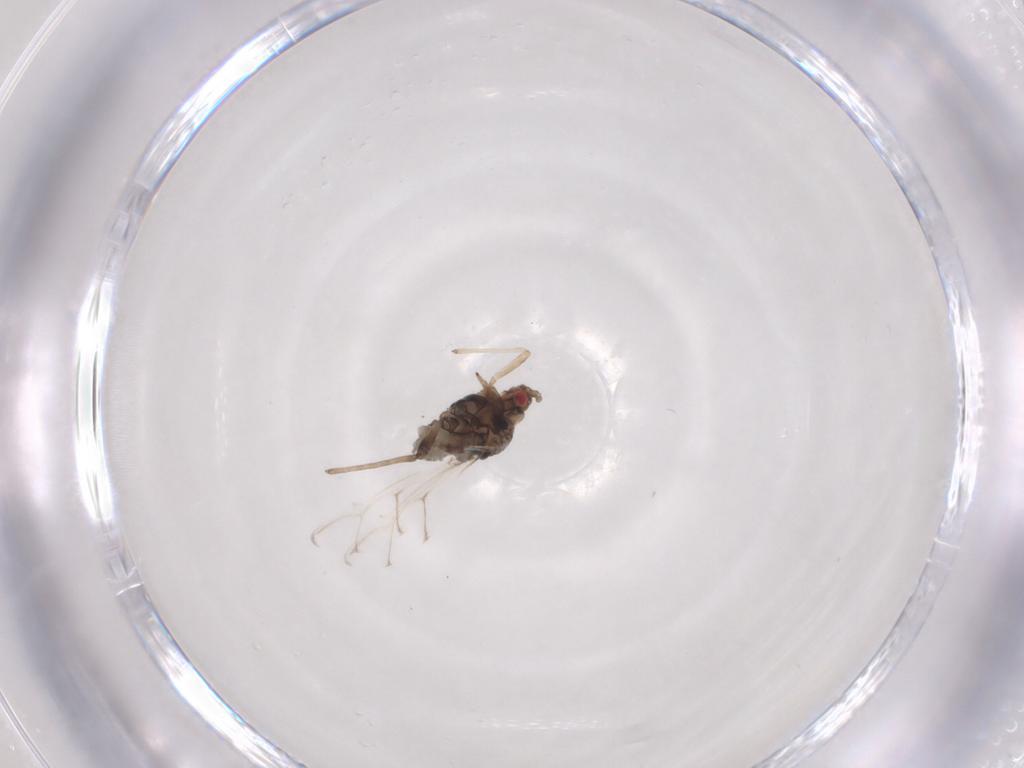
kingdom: Animalia
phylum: Arthropoda
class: Insecta
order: Hemiptera
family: Aphididae
